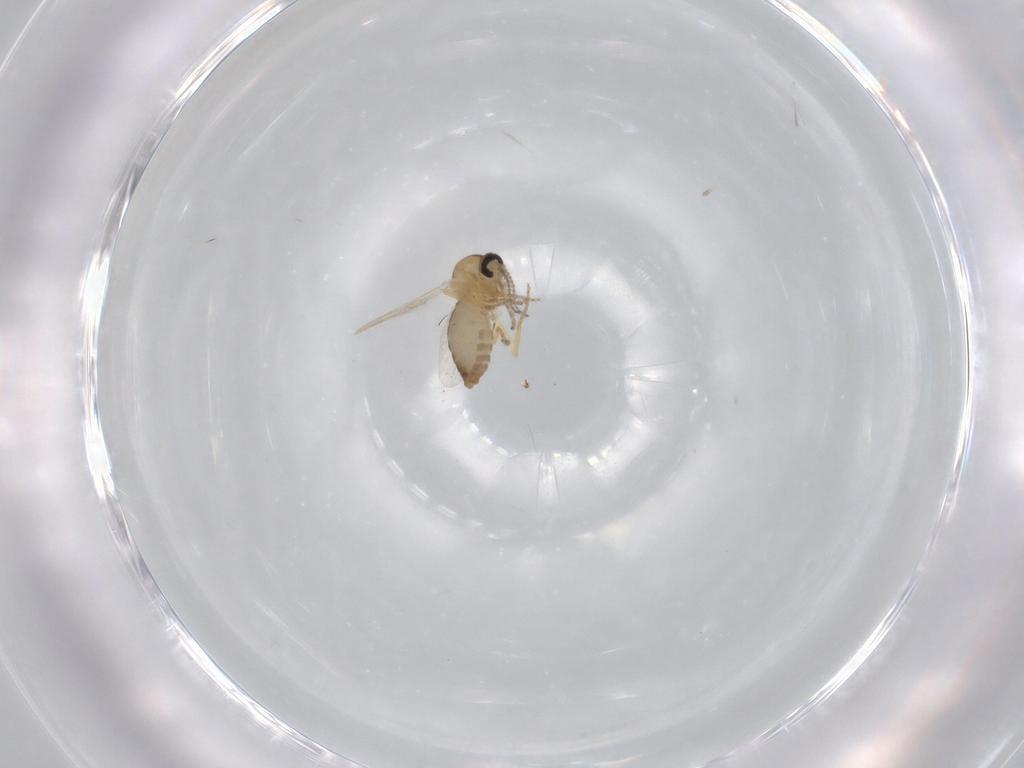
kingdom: Animalia
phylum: Arthropoda
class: Insecta
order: Diptera
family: Ceratopogonidae
